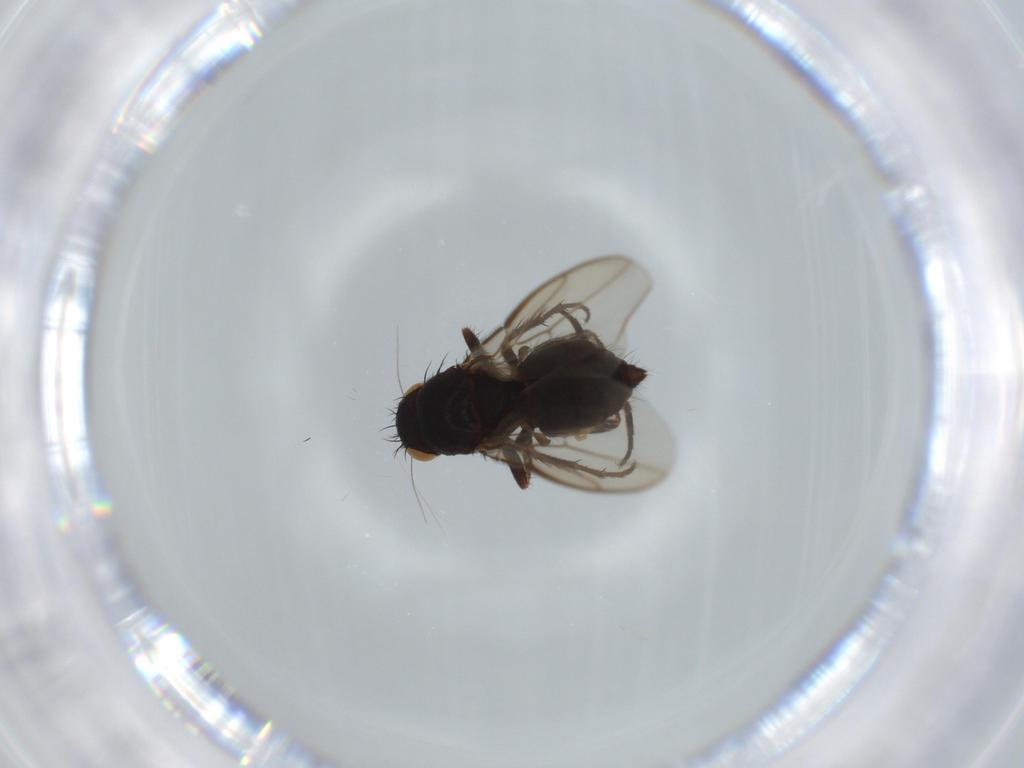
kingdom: Animalia
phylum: Arthropoda
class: Insecta
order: Diptera
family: Sphaeroceridae
